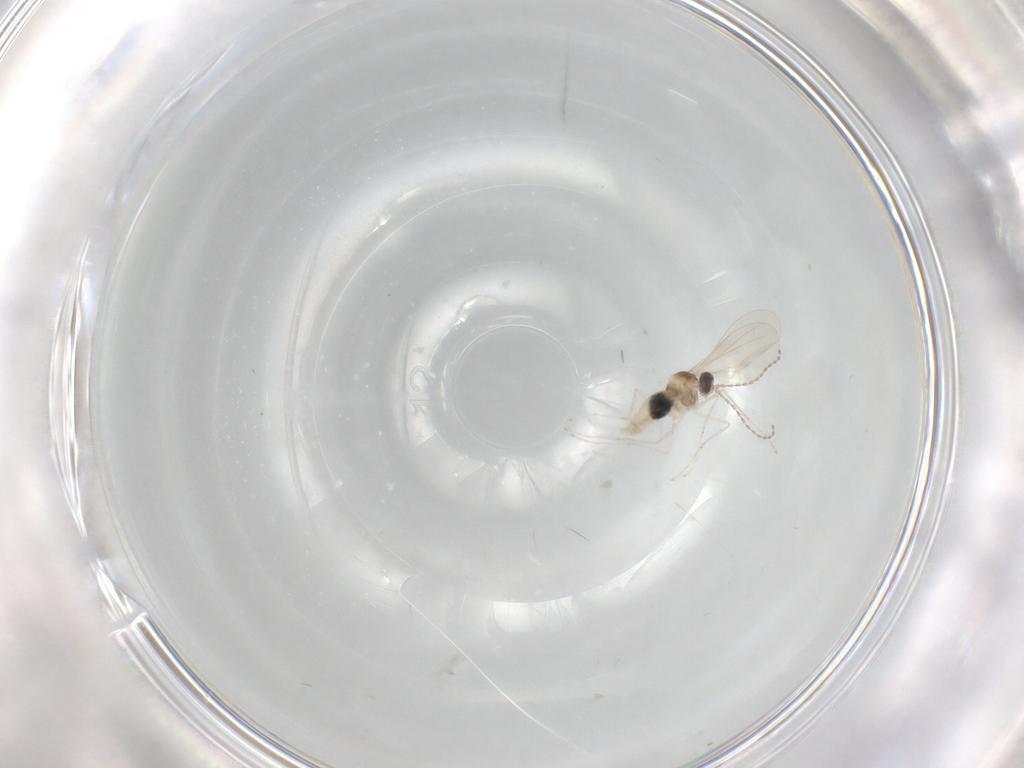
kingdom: Animalia
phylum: Arthropoda
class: Insecta
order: Diptera
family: Cecidomyiidae
